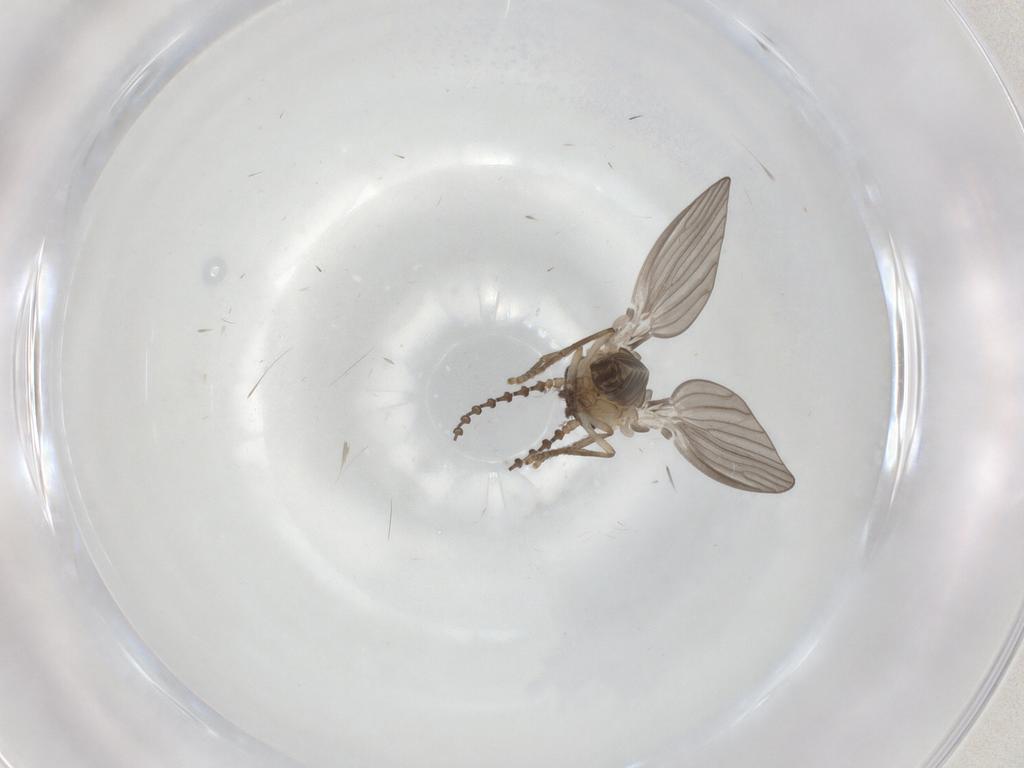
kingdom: Animalia
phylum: Arthropoda
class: Insecta
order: Diptera
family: Psychodidae
